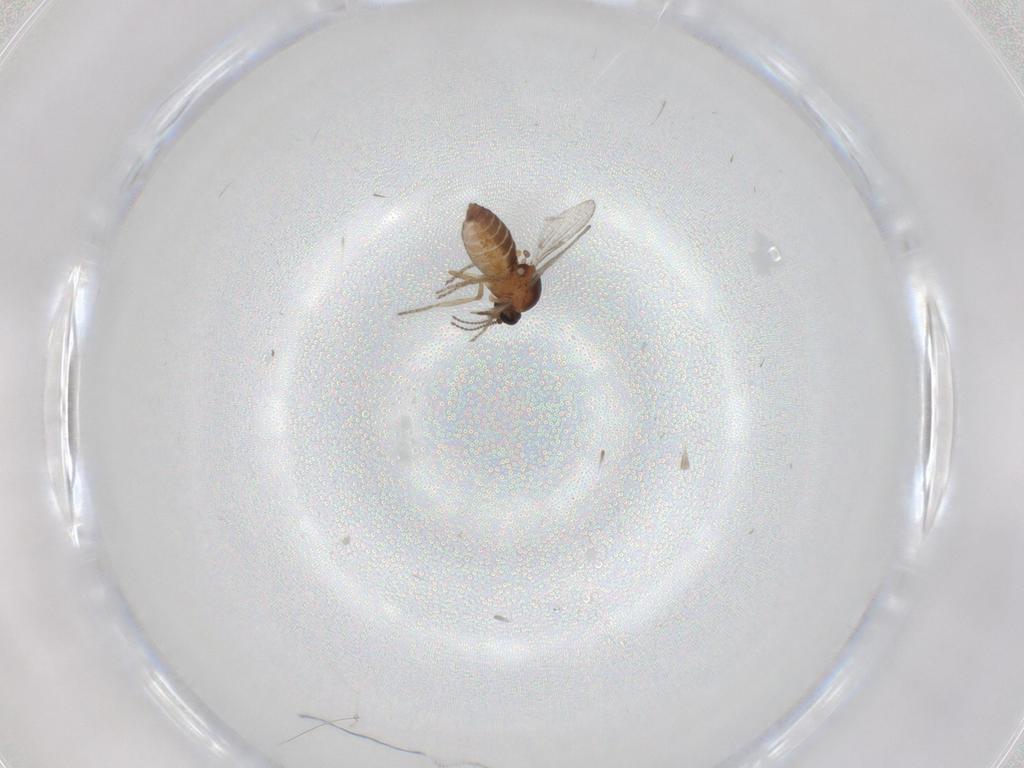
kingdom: Animalia
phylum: Arthropoda
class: Insecta
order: Diptera
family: Ceratopogonidae
